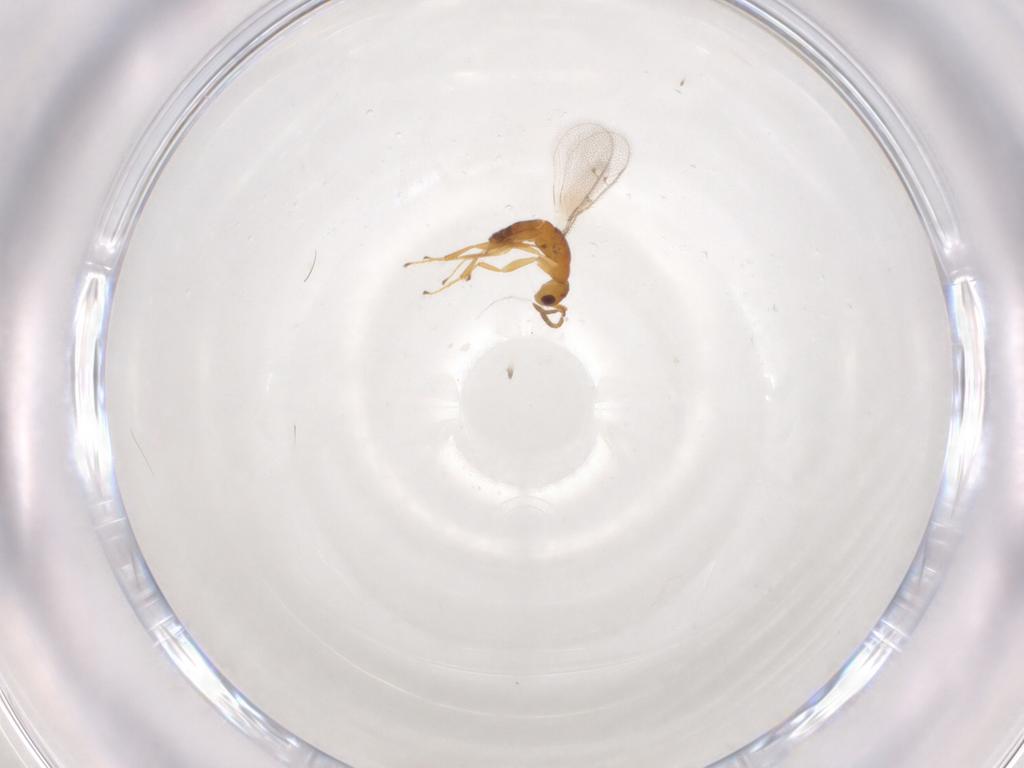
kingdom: Animalia
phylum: Arthropoda
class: Insecta
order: Hymenoptera
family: Pteromalidae
